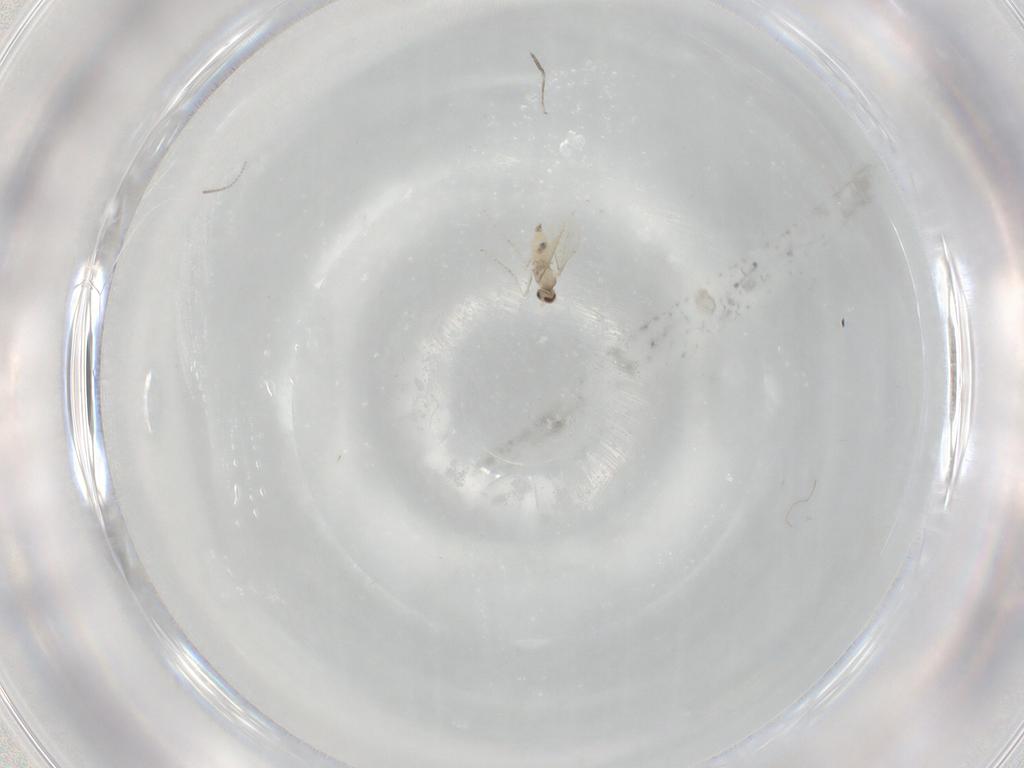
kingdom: Animalia
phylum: Arthropoda
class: Insecta
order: Diptera
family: Cecidomyiidae
